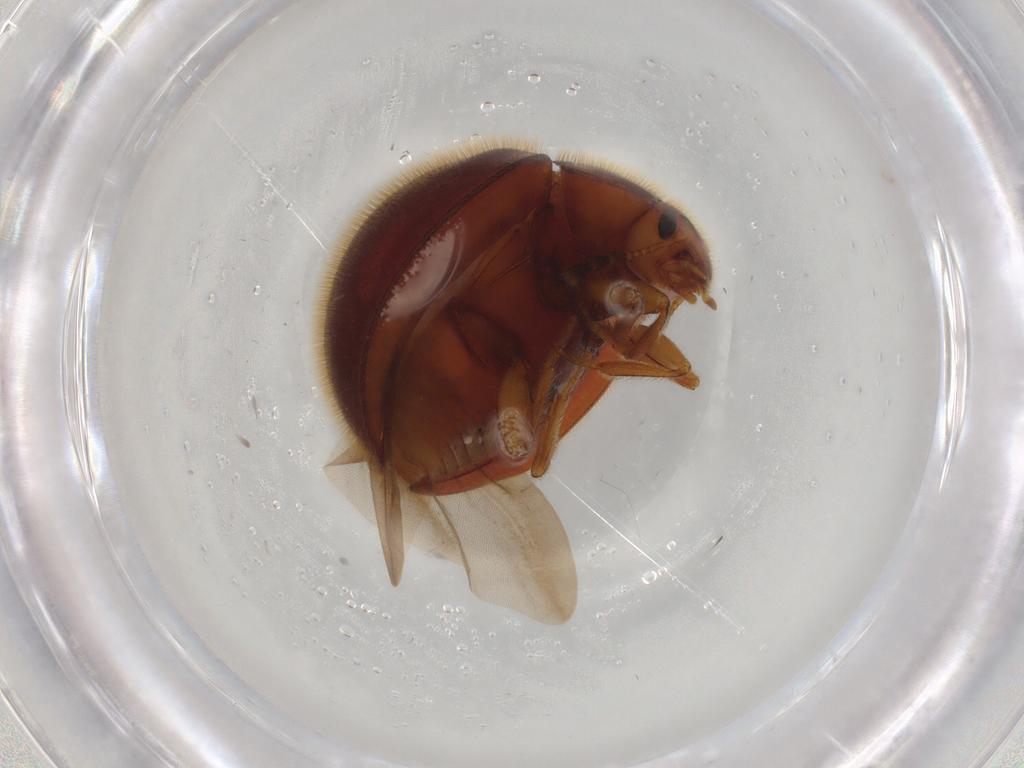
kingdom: Animalia
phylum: Arthropoda
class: Insecta
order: Coleoptera
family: Anamorphidae
